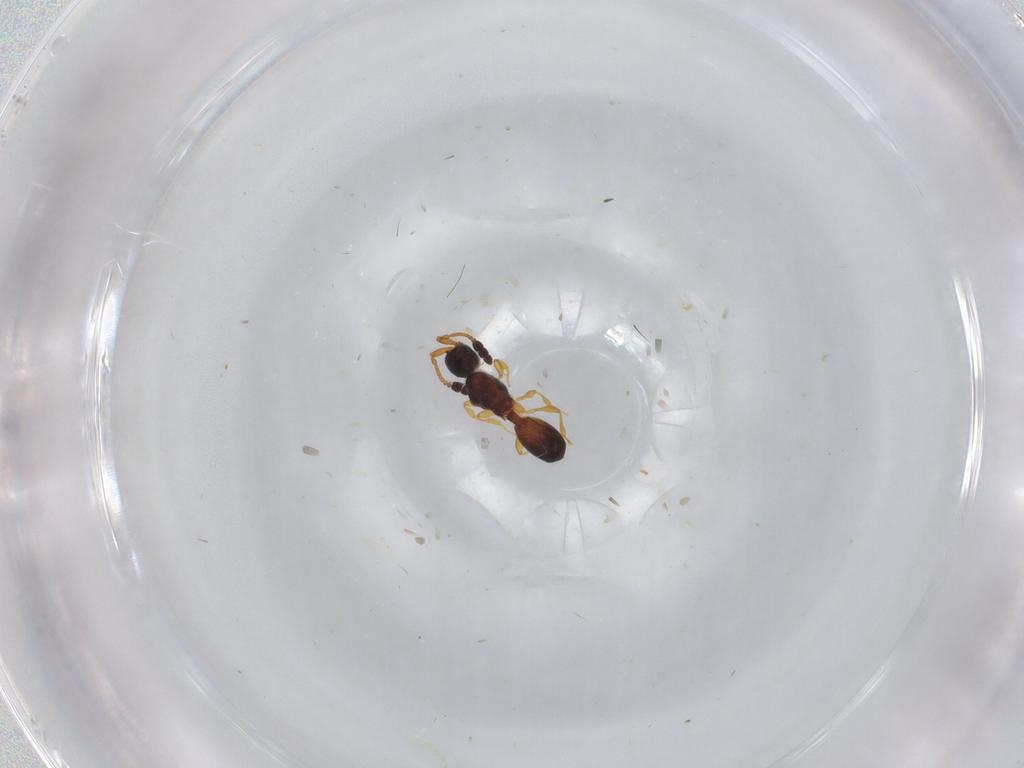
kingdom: Animalia
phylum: Arthropoda
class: Insecta
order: Hymenoptera
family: Diapriidae
